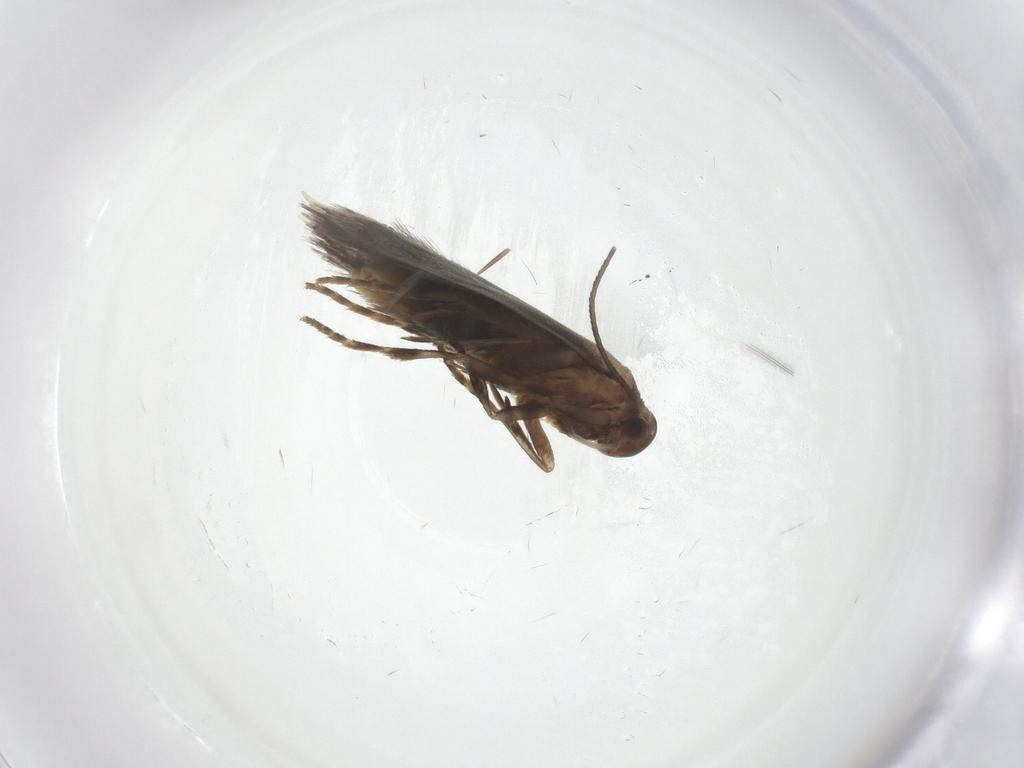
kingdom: Animalia
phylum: Arthropoda
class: Insecta
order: Lepidoptera
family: Elachistidae
